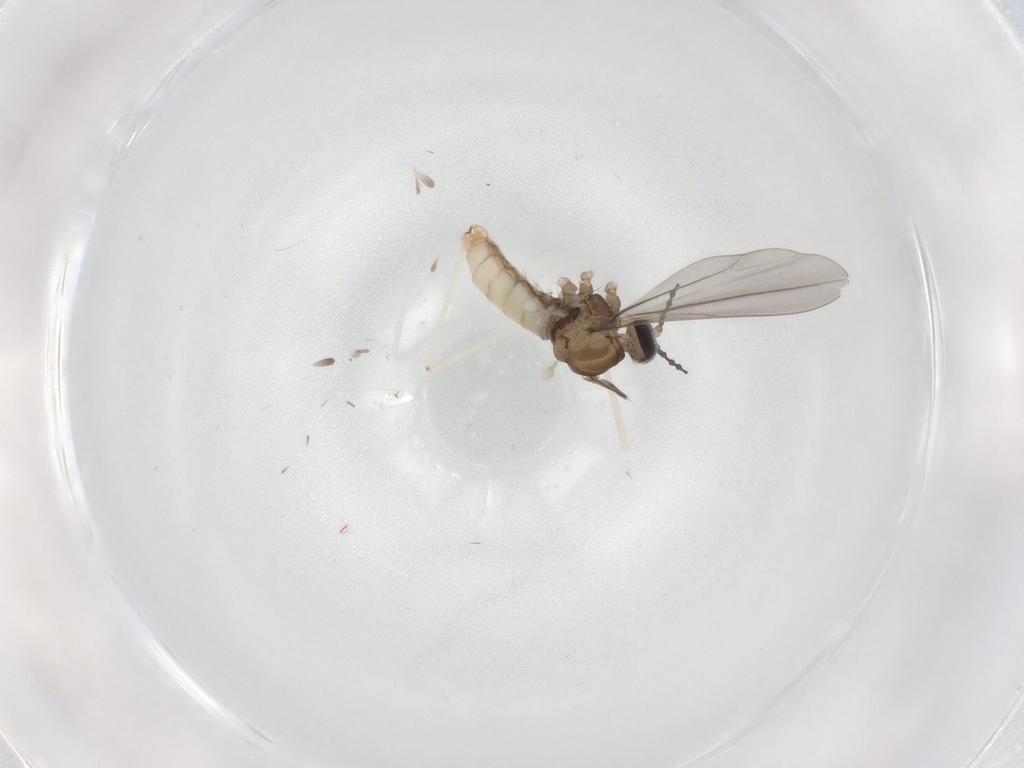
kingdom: Animalia
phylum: Arthropoda
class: Insecta
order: Diptera
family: Cecidomyiidae
